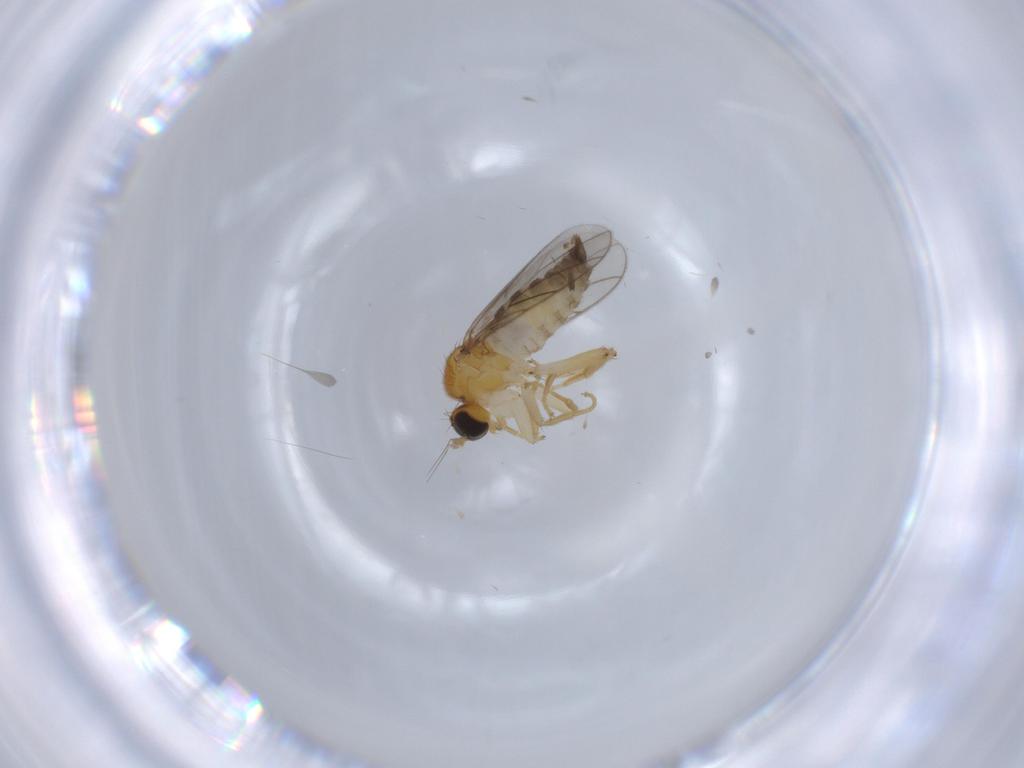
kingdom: Animalia
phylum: Arthropoda
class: Insecta
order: Diptera
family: Hybotidae
